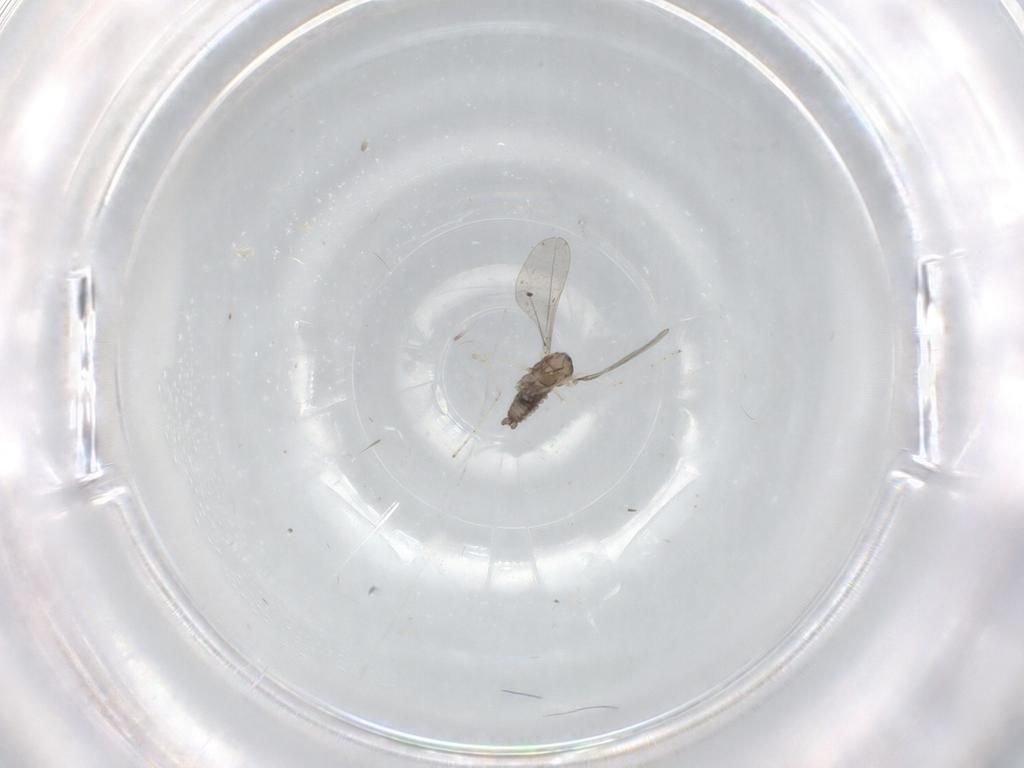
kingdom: Animalia
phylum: Arthropoda
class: Insecta
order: Diptera
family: Cecidomyiidae
